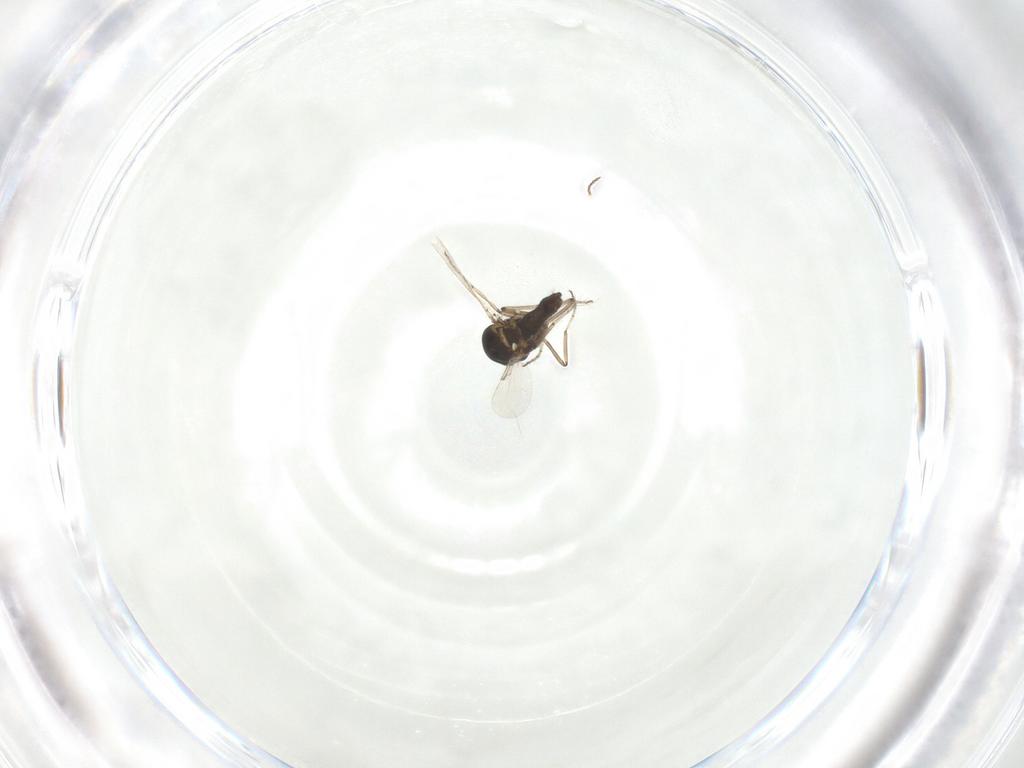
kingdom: Animalia
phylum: Arthropoda
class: Insecta
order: Diptera
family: Ceratopogonidae
